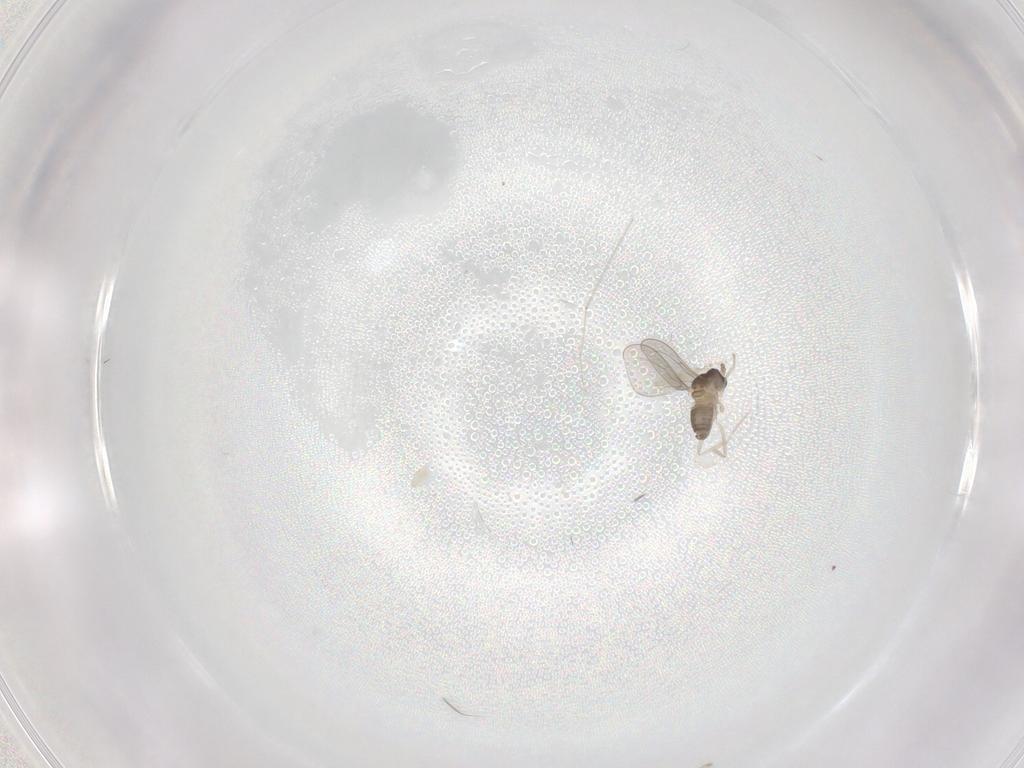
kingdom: Animalia
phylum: Arthropoda
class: Insecta
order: Diptera
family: Cecidomyiidae
